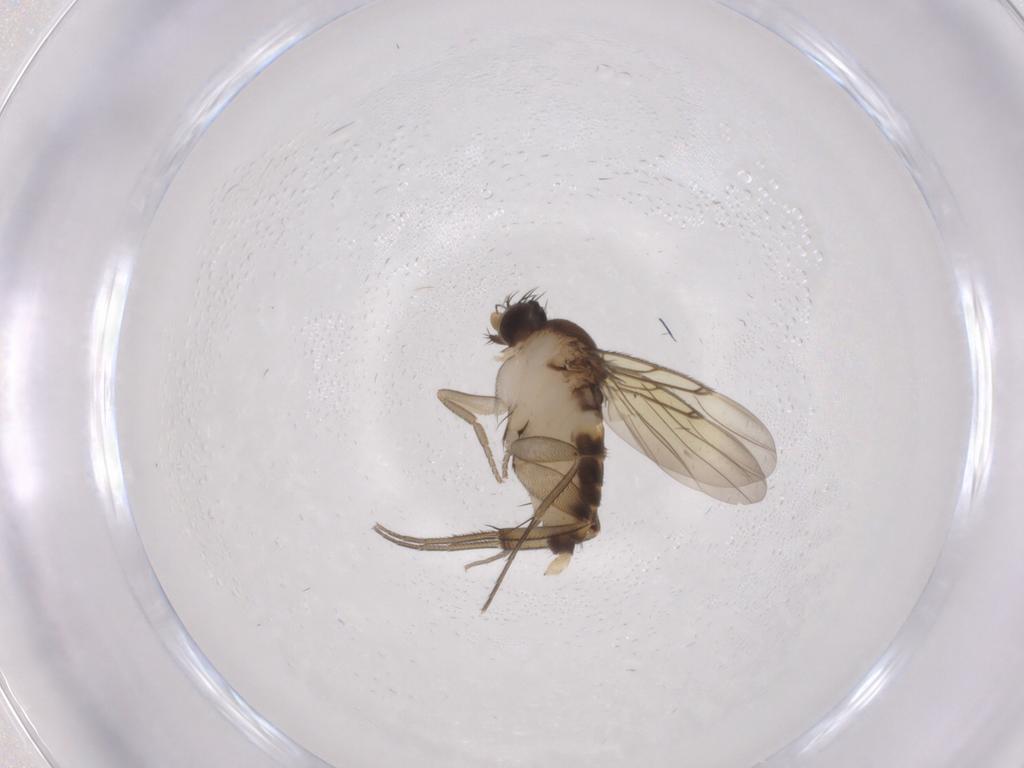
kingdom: Animalia
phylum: Arthropoda
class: Insecta
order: Diptera
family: Phoridae
